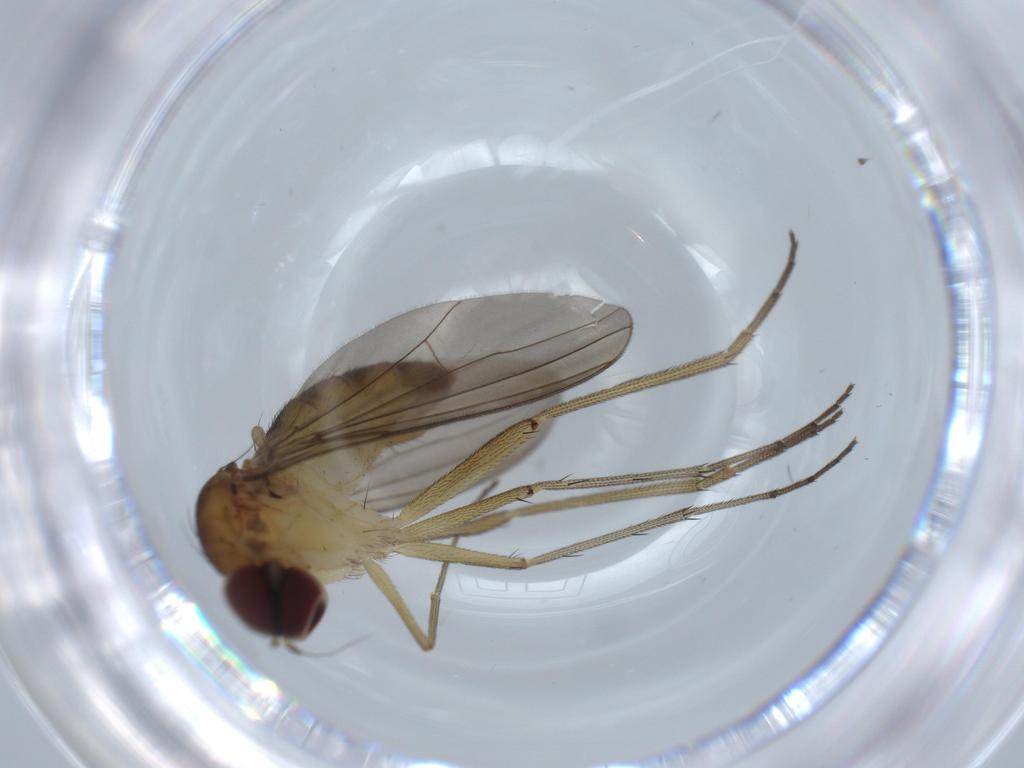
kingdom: Animalia
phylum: Arthropoda
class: Insecta
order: Diptera
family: Dolichopodidae
